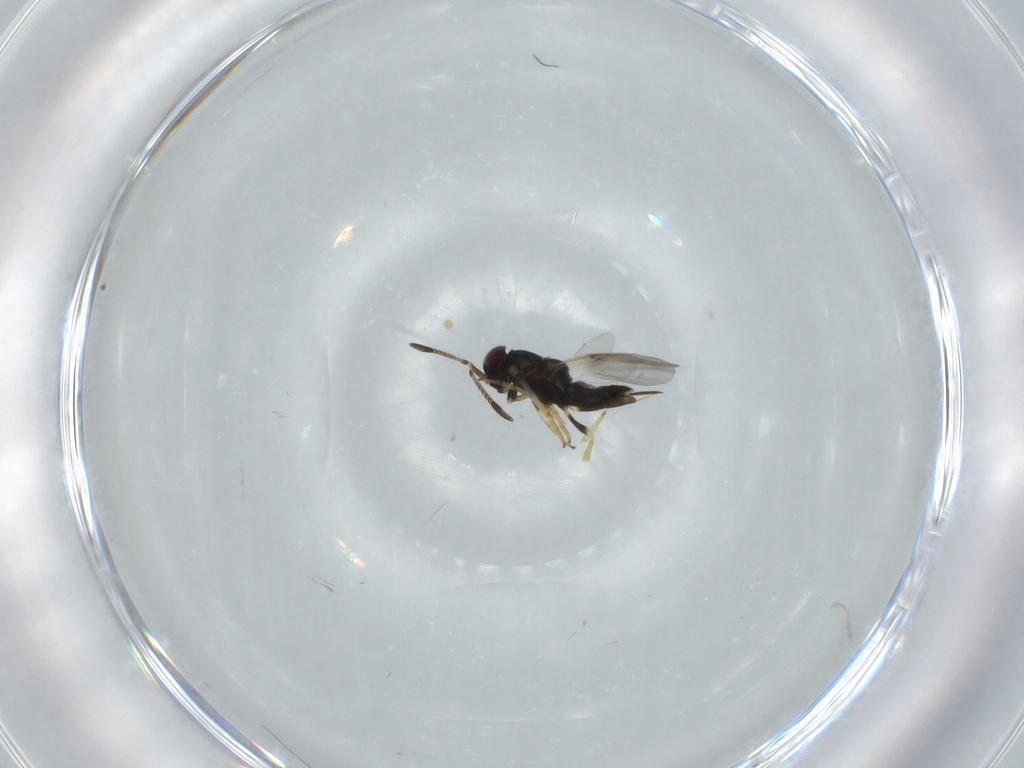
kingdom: Animalia
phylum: Arthropoda
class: Insecta
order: Hymenoptera
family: Encyrtidae
